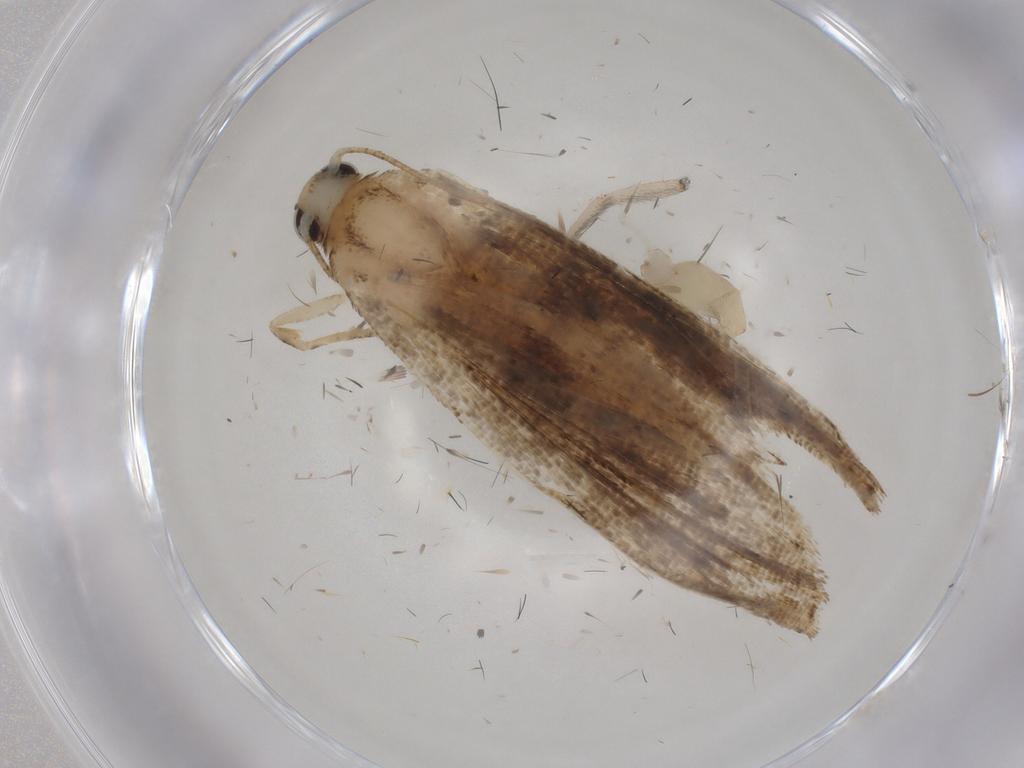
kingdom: Animalia
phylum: Arthropoda
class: Insecta
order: Lepidoptera
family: Erebidae
